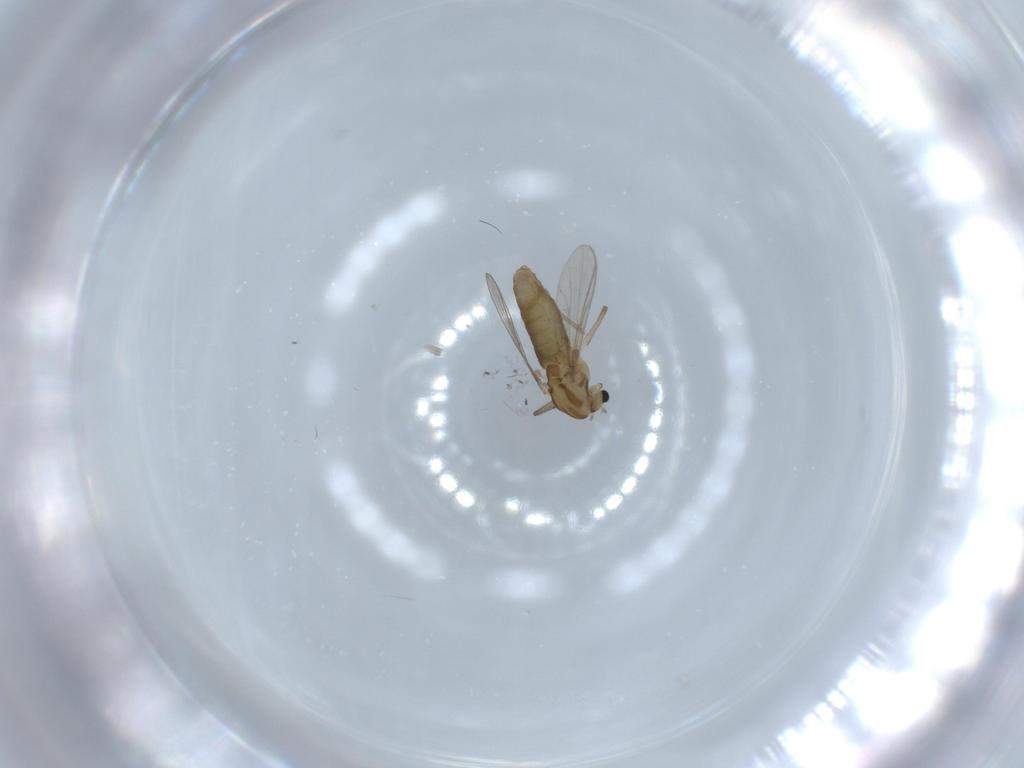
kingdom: Animalia
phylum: Arthropoda
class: Insecta
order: Diptera
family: Chironomidae
